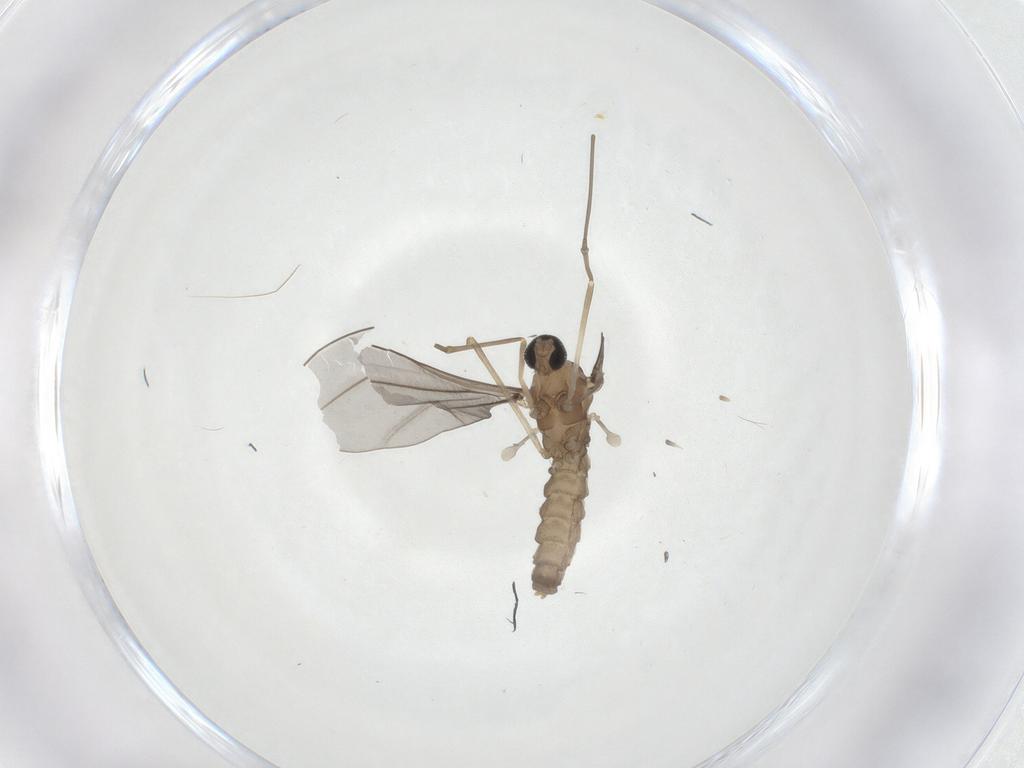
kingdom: Animalia
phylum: Arthropoda
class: Insecta
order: Diptera
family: Cecidomyiidae
